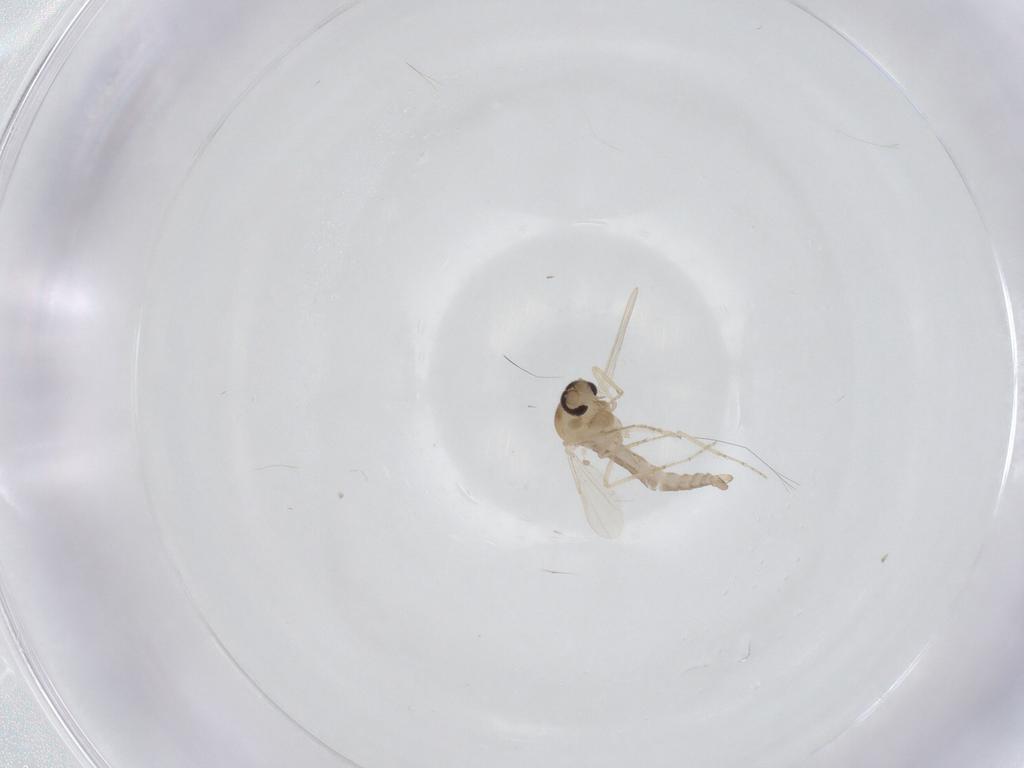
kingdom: Animalia
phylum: Arthropoda
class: Insecta
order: Diptera
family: Ceratopogonidae
